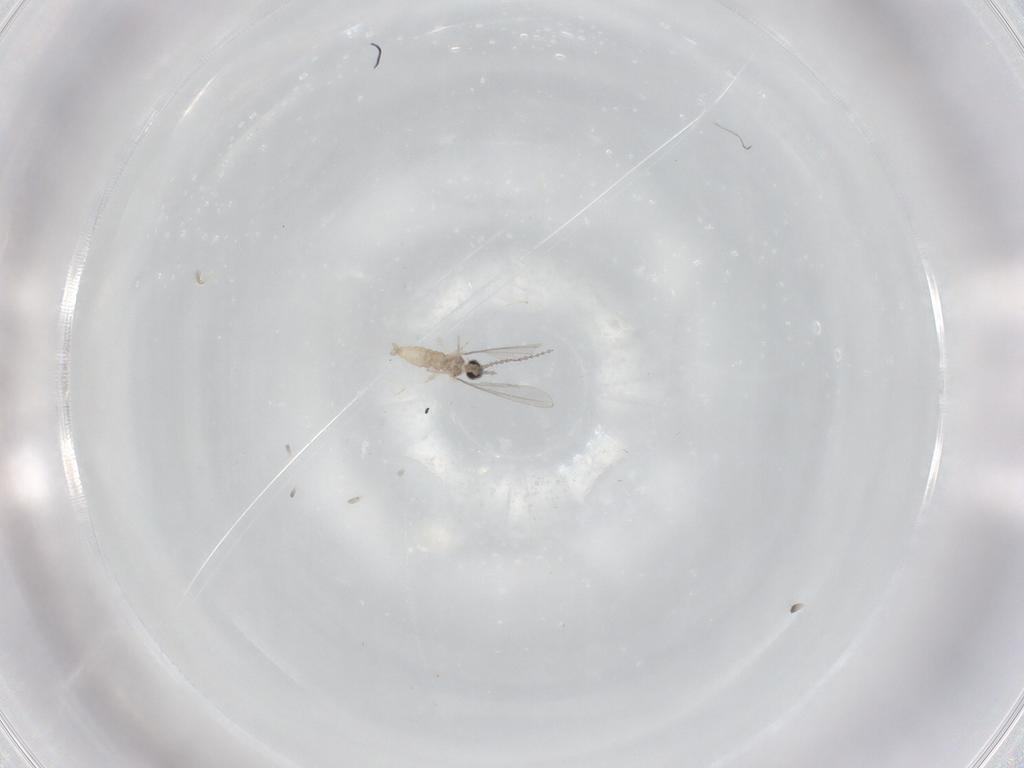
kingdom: Animalia
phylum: Arthropoda
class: Insecta
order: Diptera
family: Cecidomyiidae
